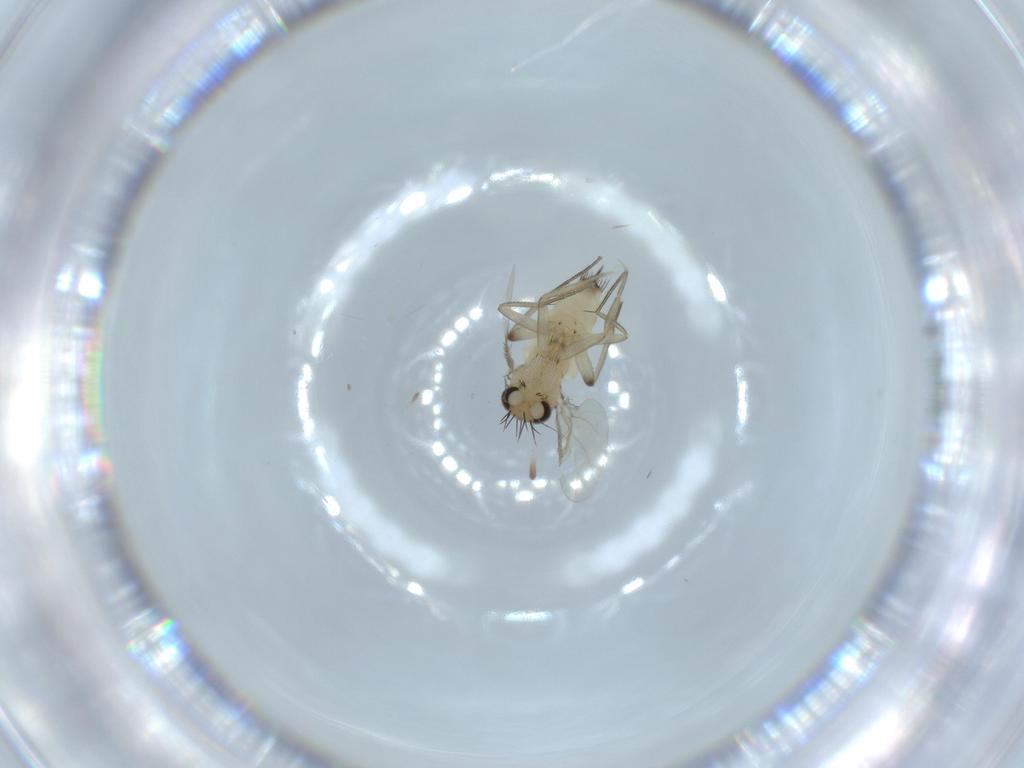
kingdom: Animalia
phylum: Arthropoda
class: Insecta
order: Diptera
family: Phoridae
